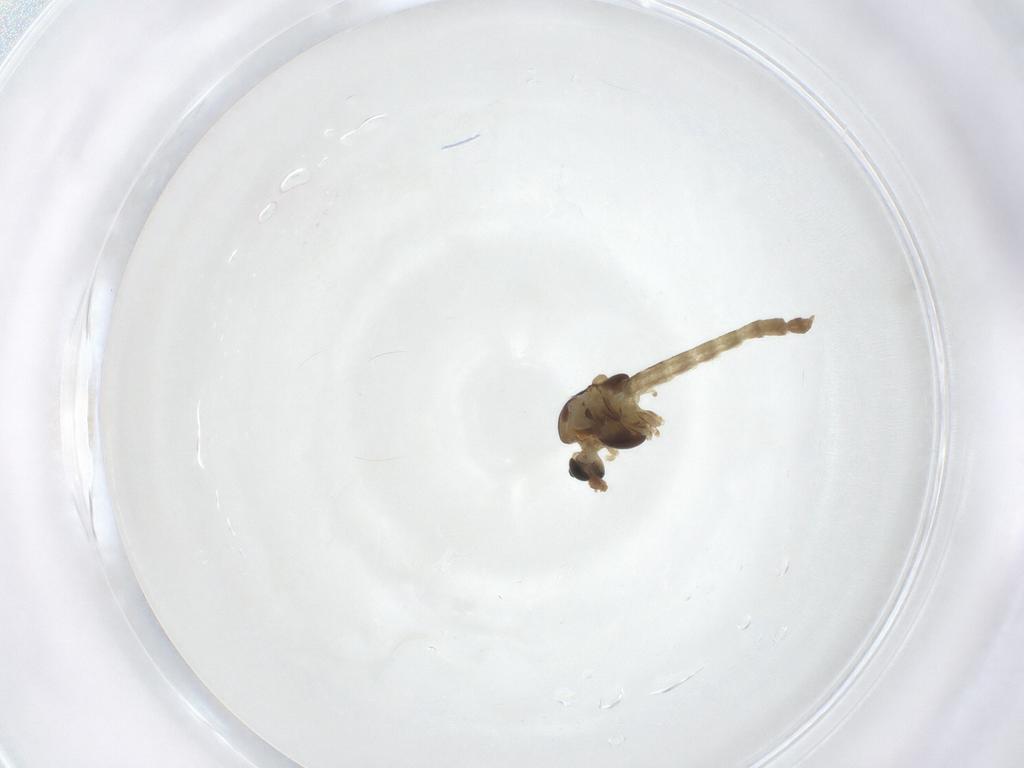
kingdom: Animalia
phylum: Arthropoda
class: Insecta
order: Diptera
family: Chironomidae
